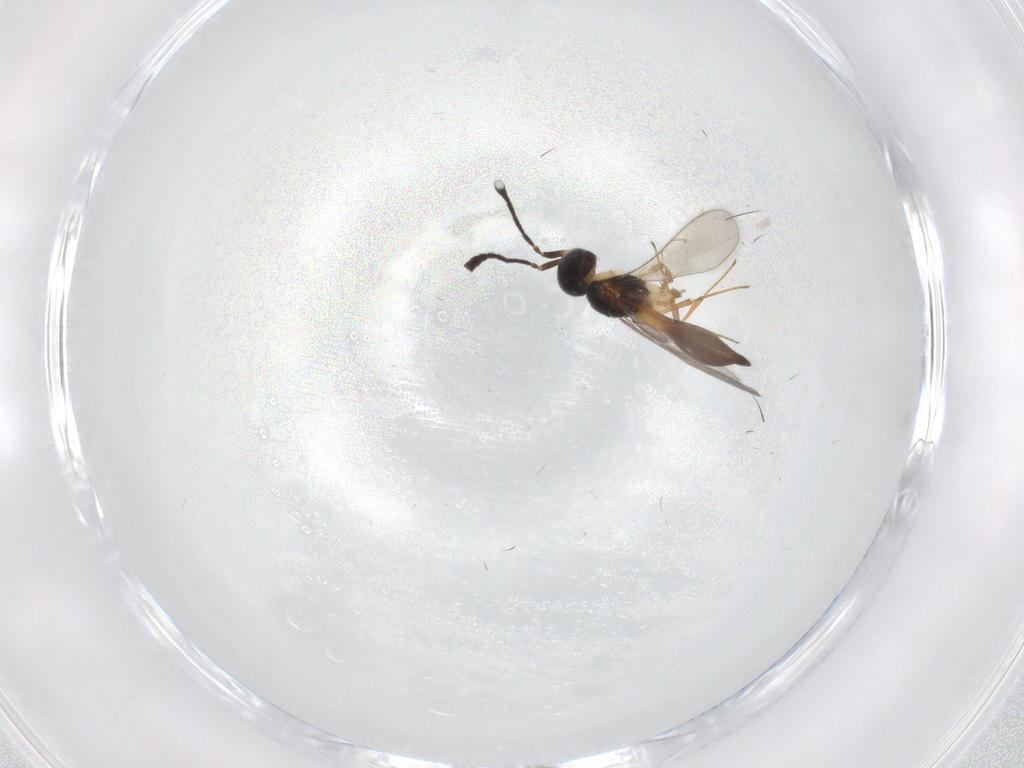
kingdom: Animalia
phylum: Arthropoda
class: Insecta
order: Hymenoptera
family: Scelionidae
